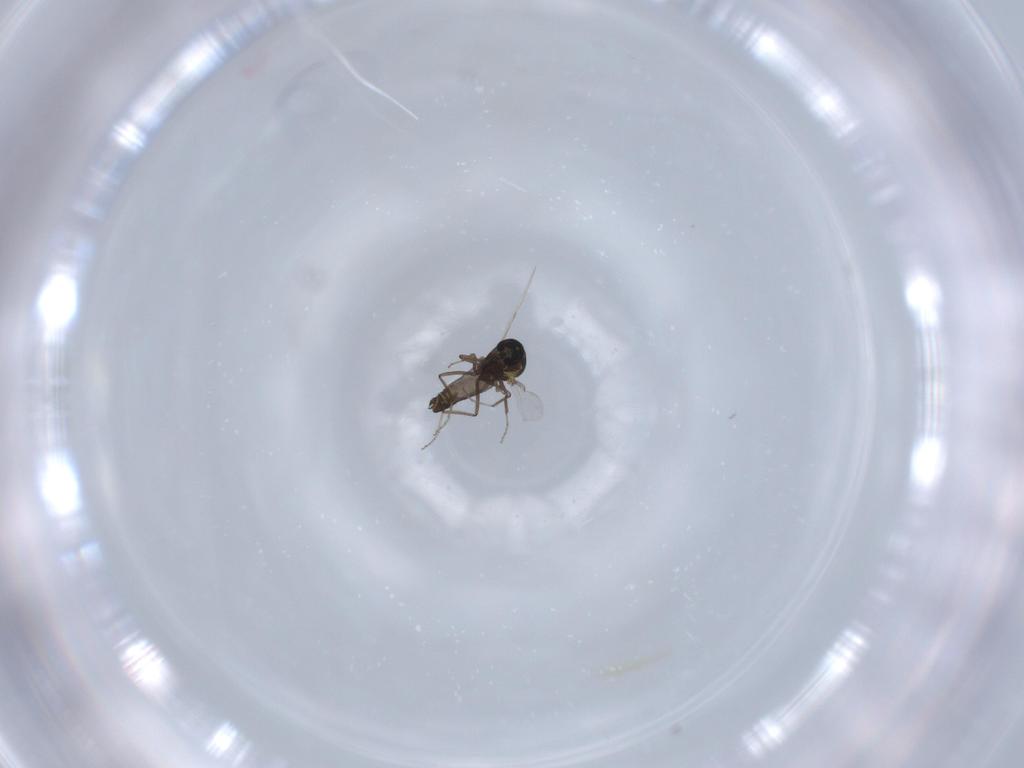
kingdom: Animalia
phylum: Arthropoda
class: Insecta
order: Diptera
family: Ceratopogonidae
